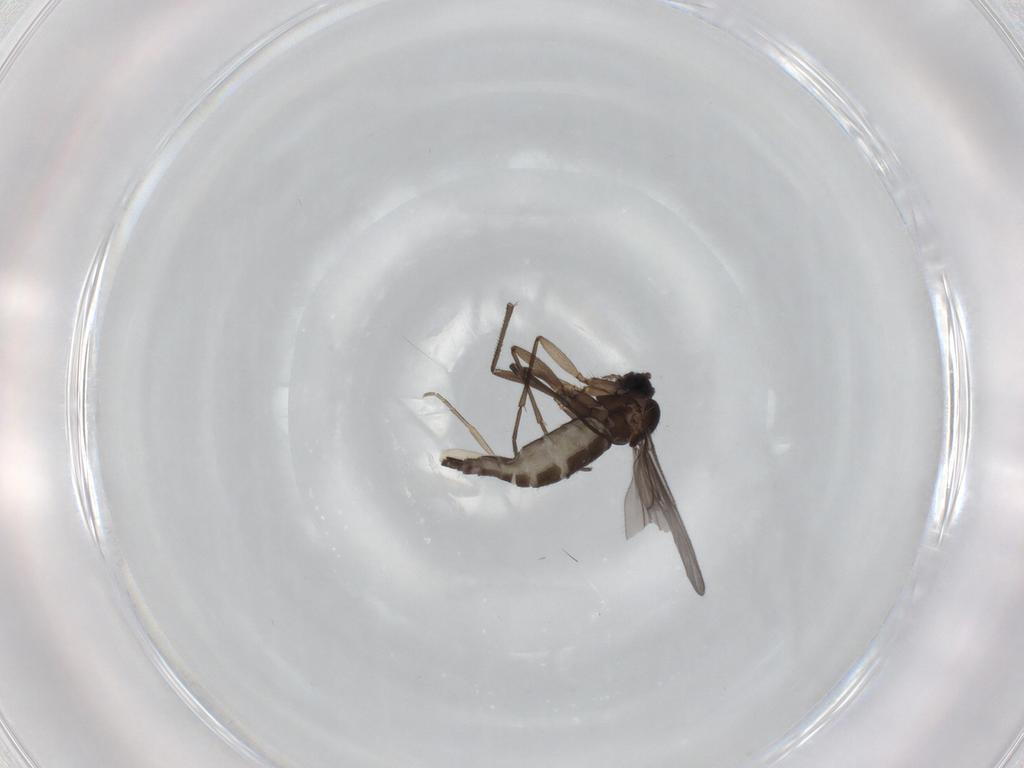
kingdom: Animalia
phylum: Arthropoda
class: Insecta
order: Diptera
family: Sciaridae
